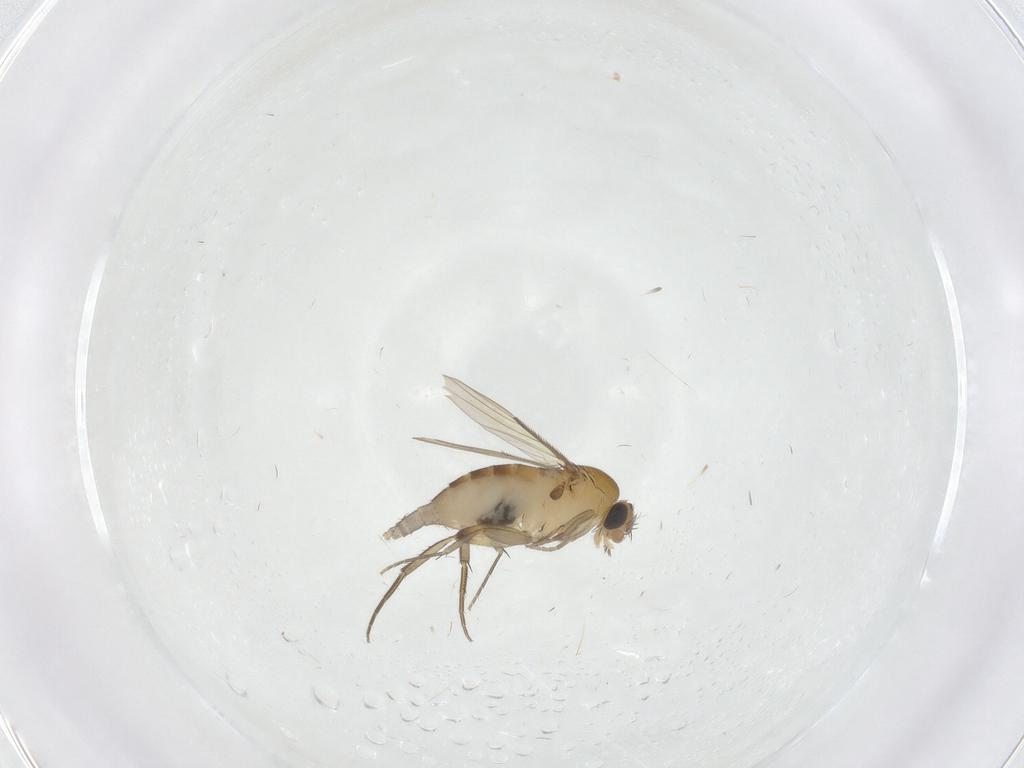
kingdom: Animalia
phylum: Arthropoda
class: Insecta
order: Diptera
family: Phoridae
